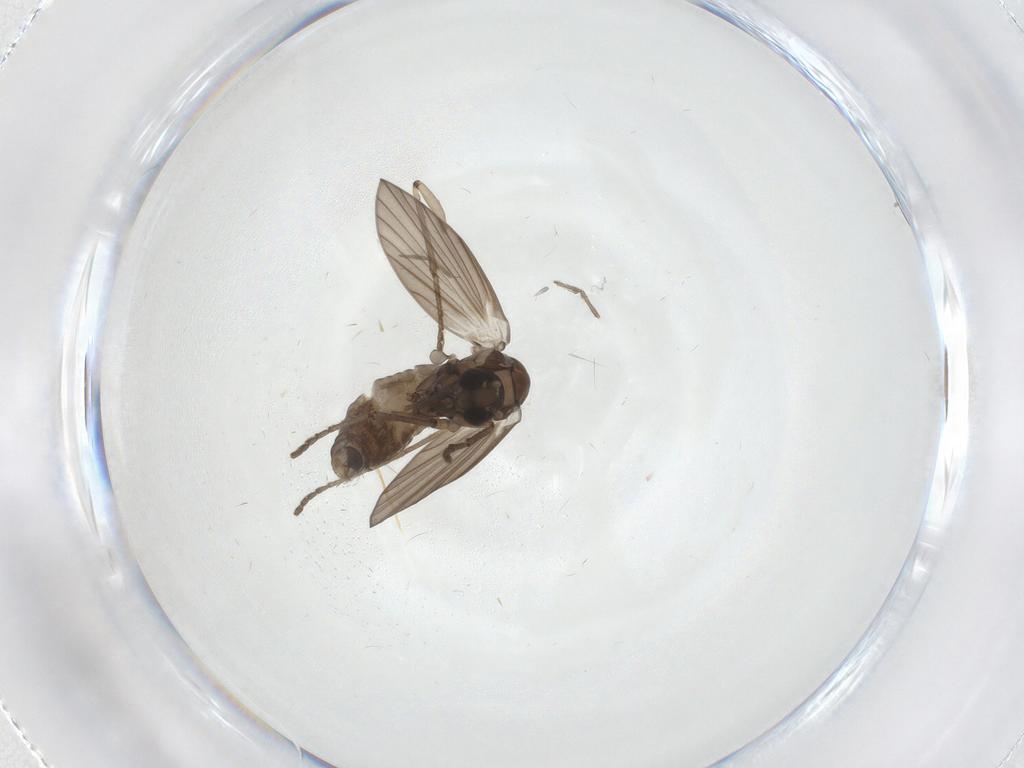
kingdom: Animalia
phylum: Arthropoda
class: Insecta
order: Diptera
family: Phoridae
